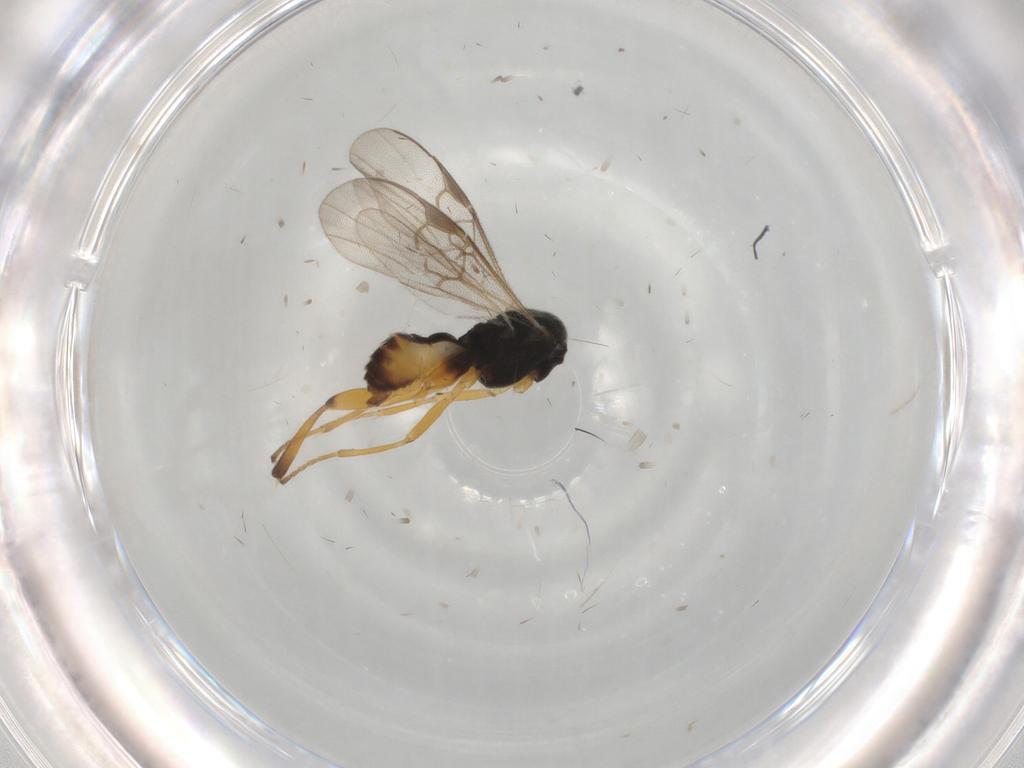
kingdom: Animalia
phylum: Arthropoda
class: Insecta
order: Hymenoptera
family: Braconidae
